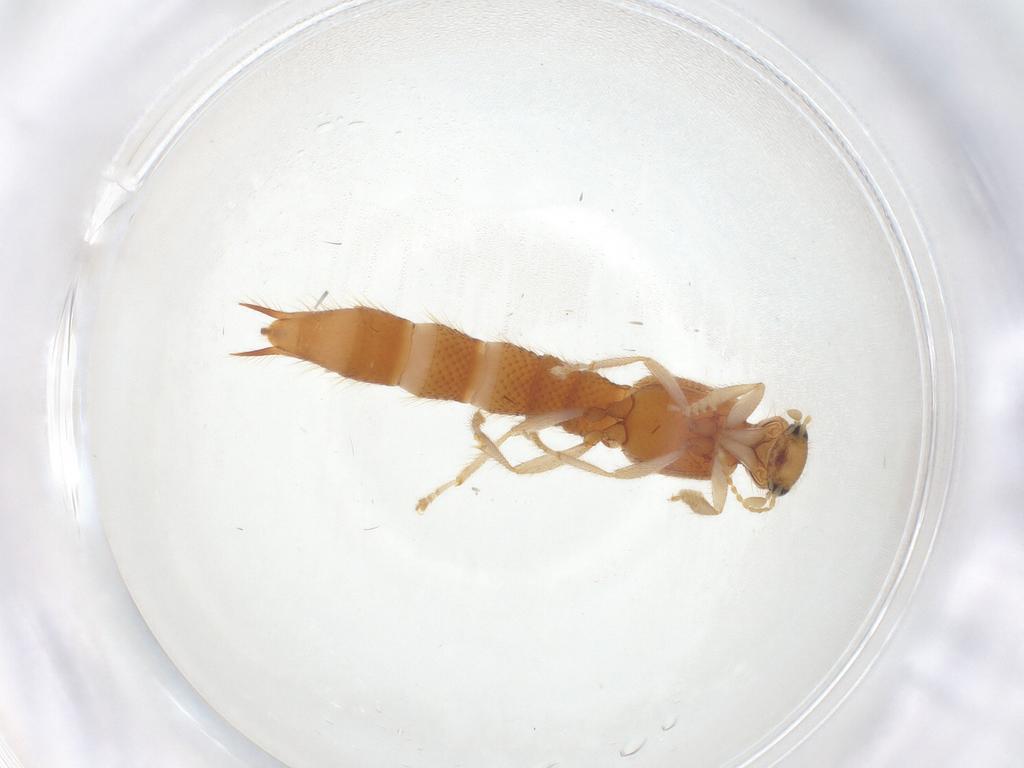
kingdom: Animalia
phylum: Arthropoda
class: Insecta
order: Coleoptera
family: Staphylinidae
